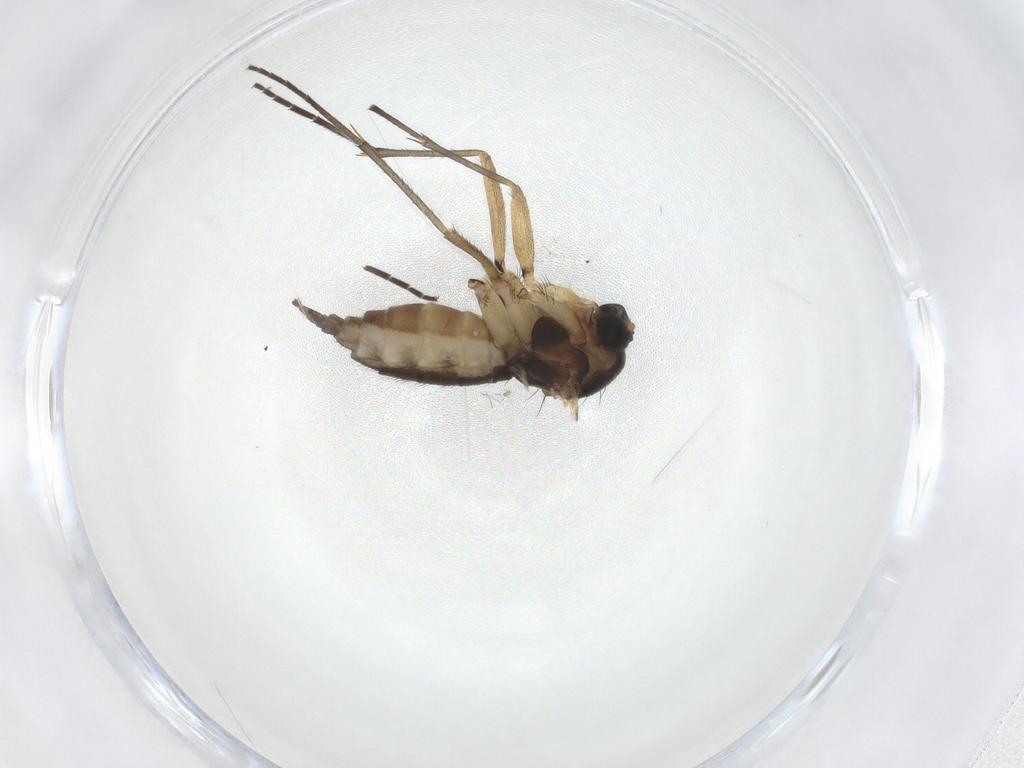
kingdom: Animalia
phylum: Arthropoda
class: Insecta
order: Diptera
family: Sciaridae
